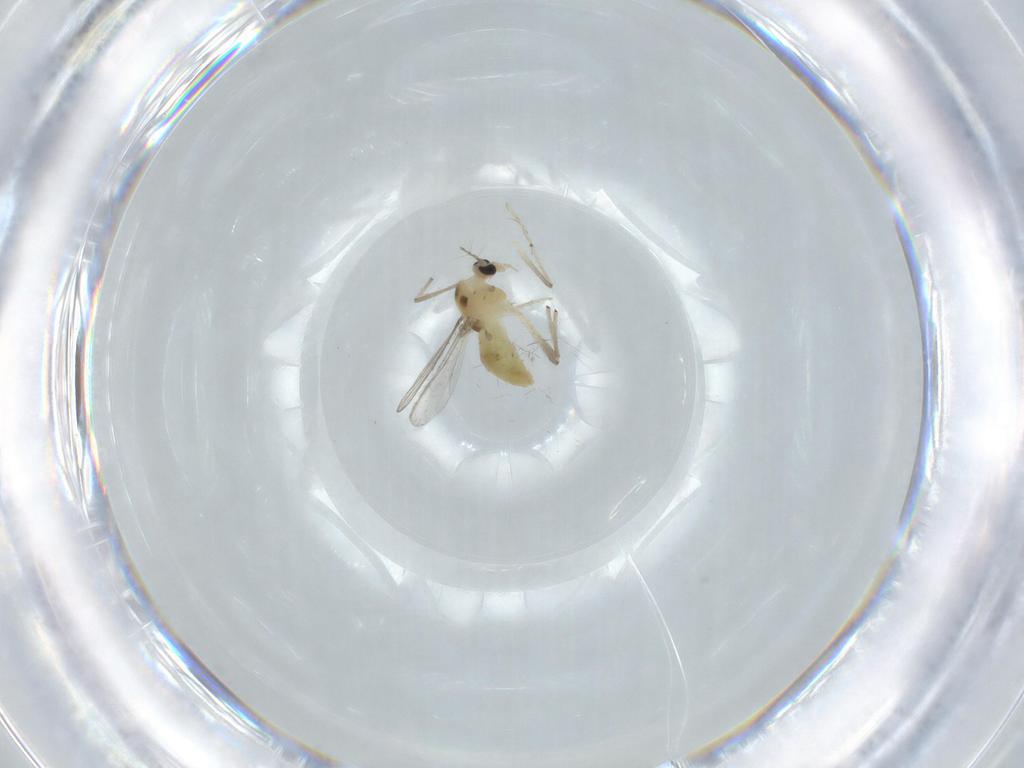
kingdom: Animalia
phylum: Arthropoda
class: Insecta
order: Diptera
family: Chironomidae
